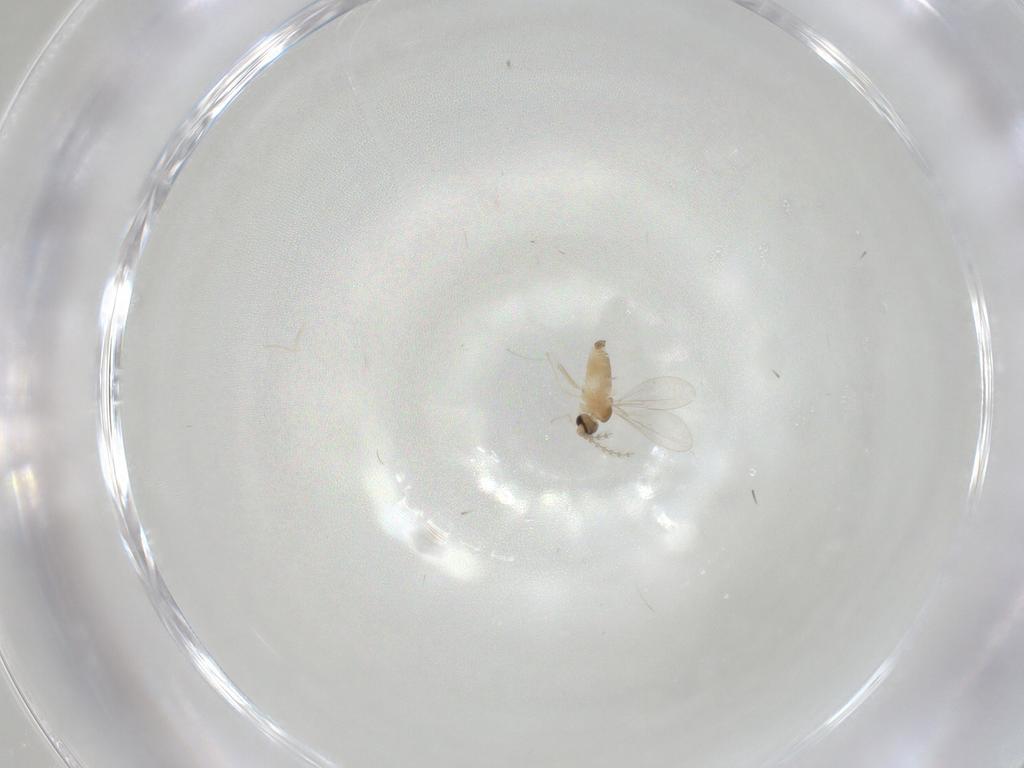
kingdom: Animalia
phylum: Arthropoda
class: Insecta
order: Diptera
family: Cecidomyiidae
